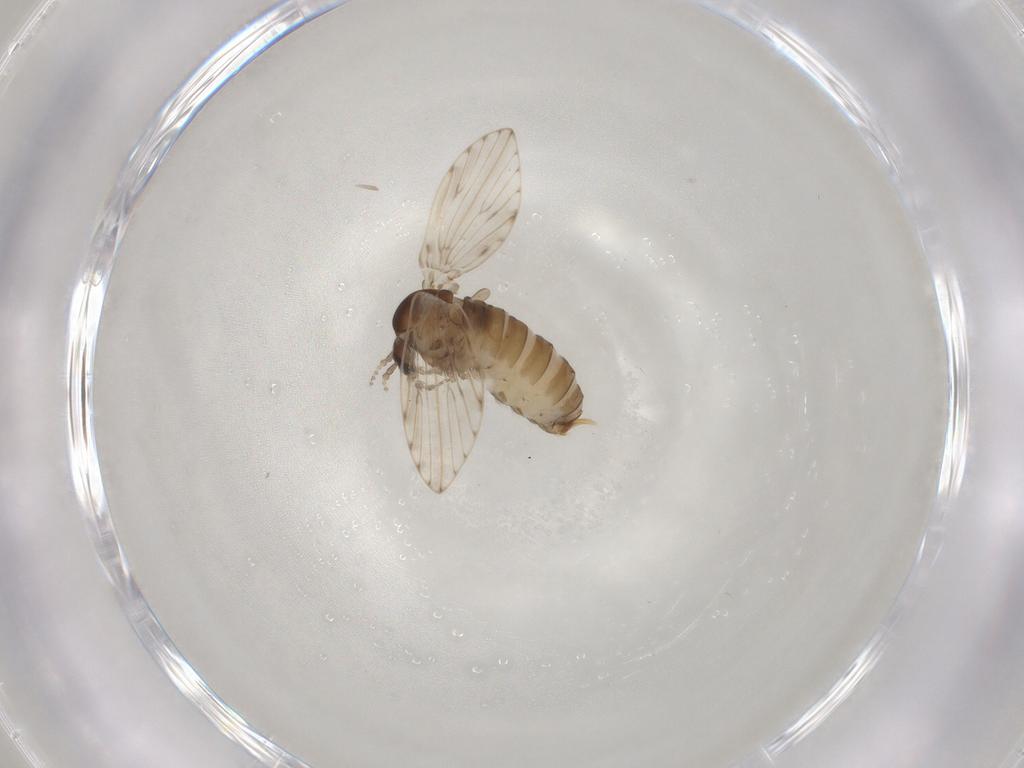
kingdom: Animalia
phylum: Arthropoda
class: Insecta
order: Diptera
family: Psychodidae
